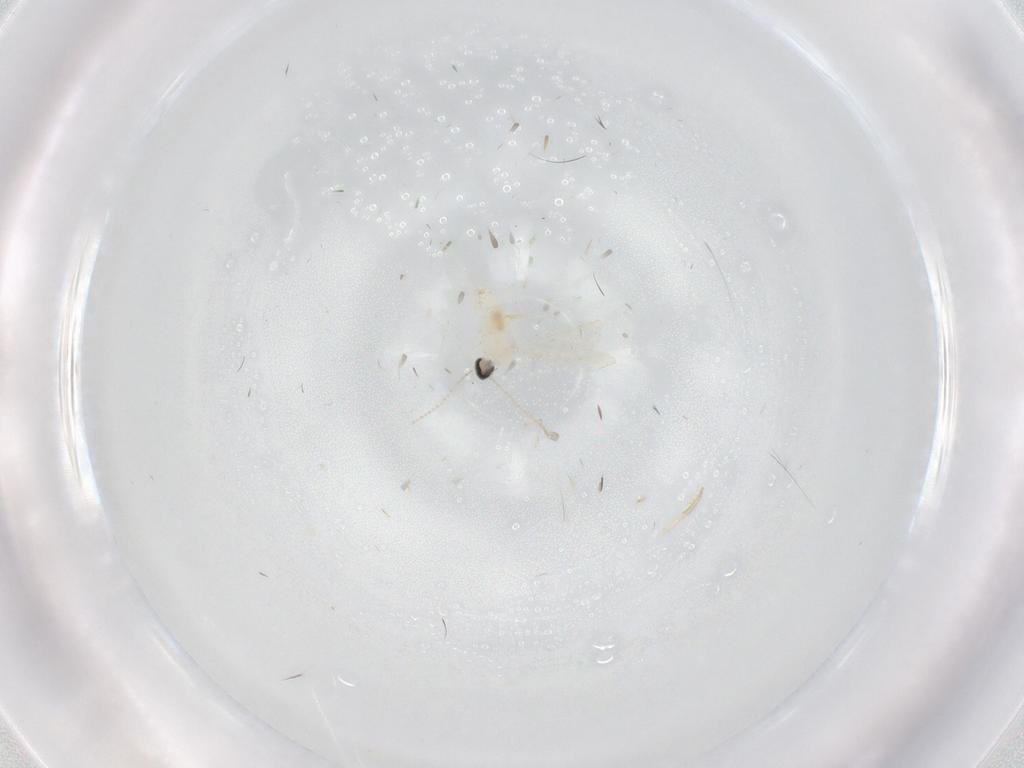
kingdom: Animalia
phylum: Arthropoda
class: Insecta
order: Diptera
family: Cecidomyiidae
